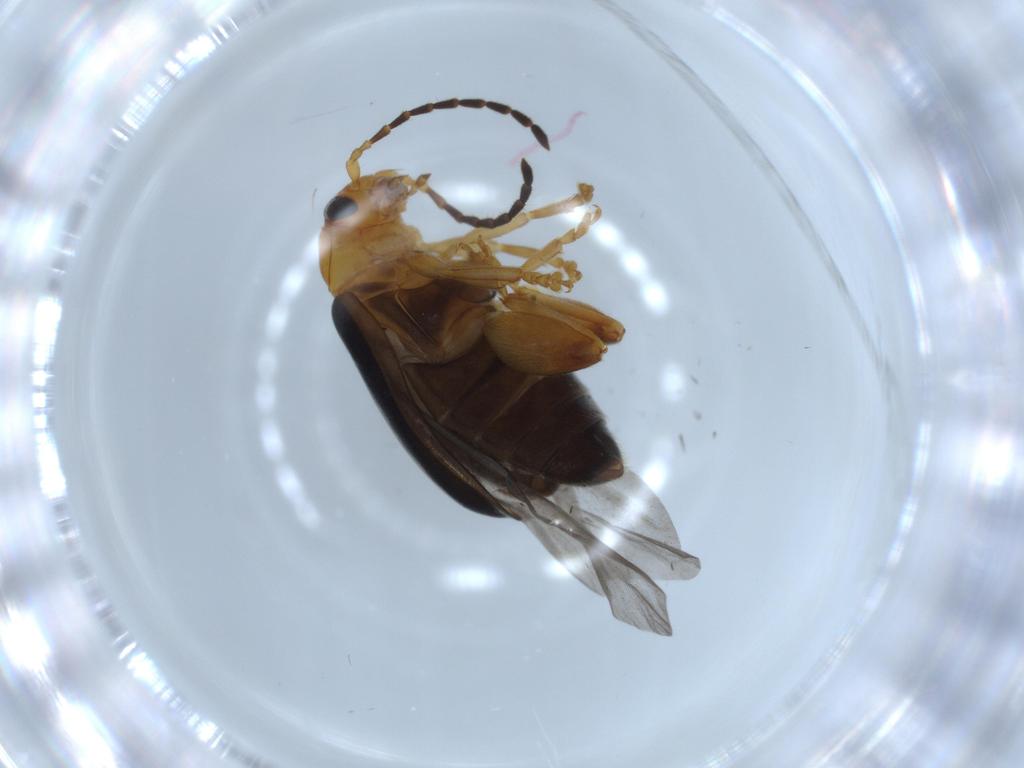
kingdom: Animalia
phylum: Arthropoda
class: Insecta
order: Coleoptera
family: Chrysomelidae
